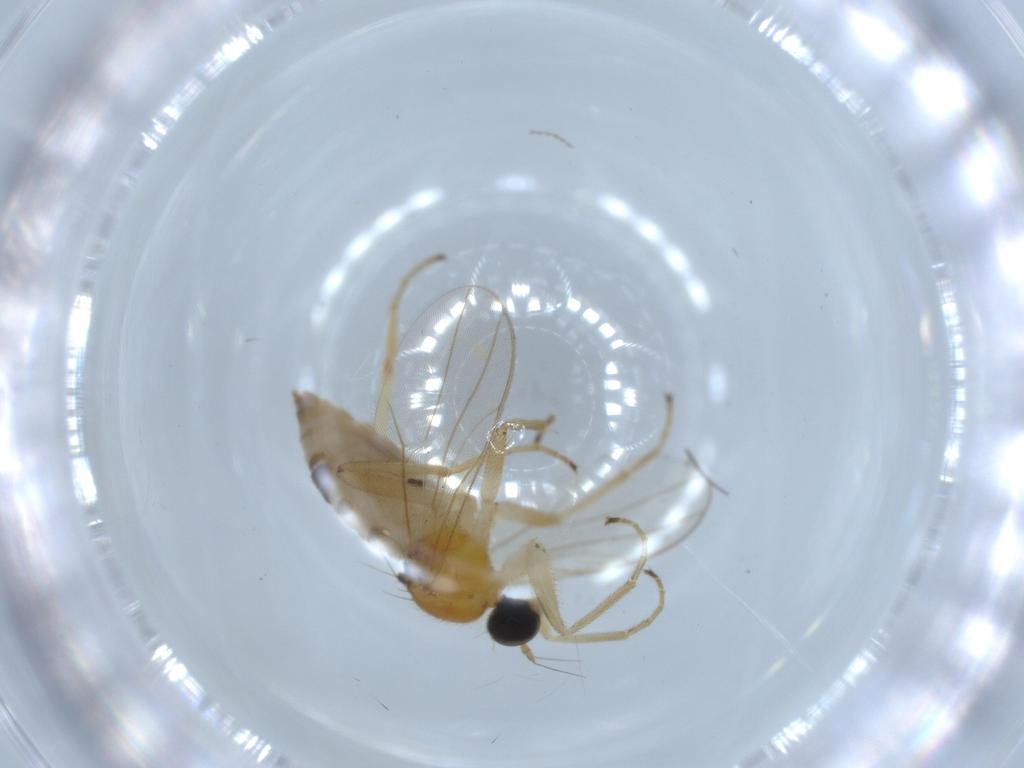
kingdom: Animalia
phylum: Arthropoda
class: Insecta
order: Diptera
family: Hybotidae
